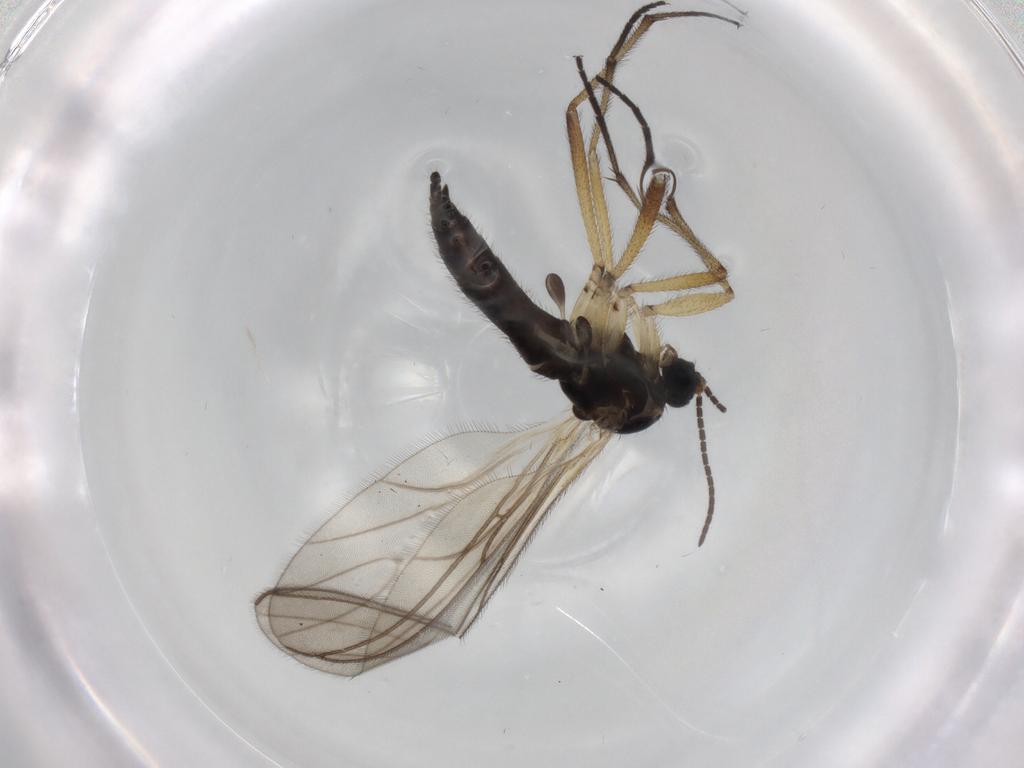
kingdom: Animalia
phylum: Arthropoda
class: Insecta
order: Diptera
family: Sciaridae
